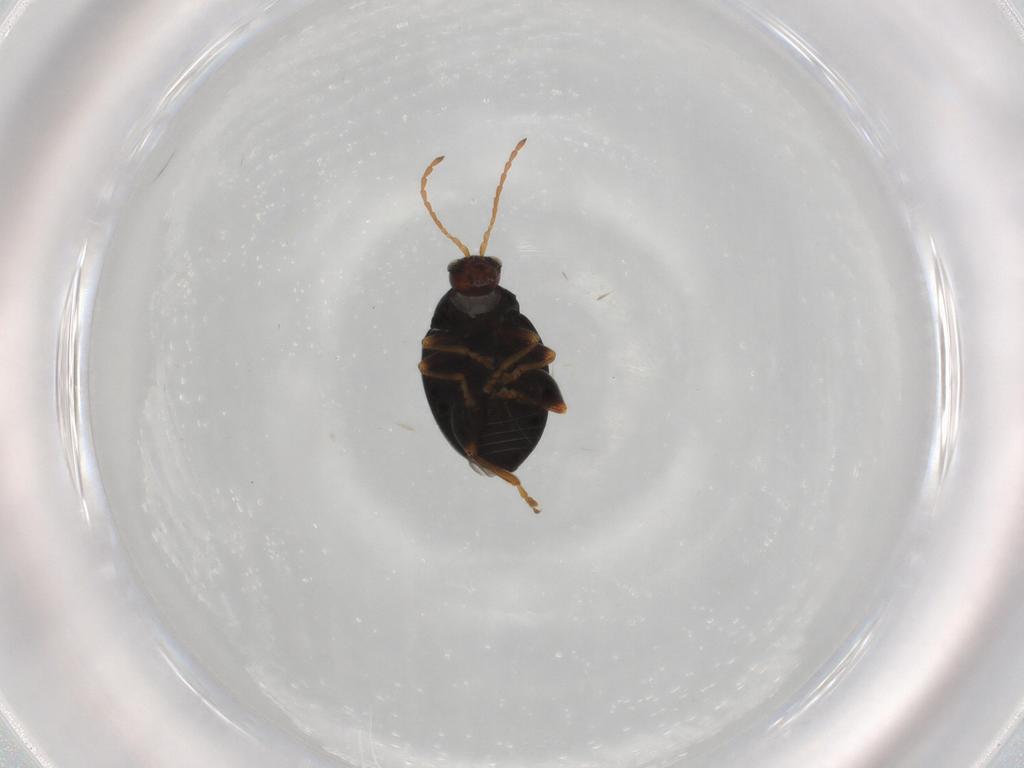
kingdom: Animalia
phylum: Arthropoda
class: Insecta
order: Coleoptera
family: Chrysomelidae
